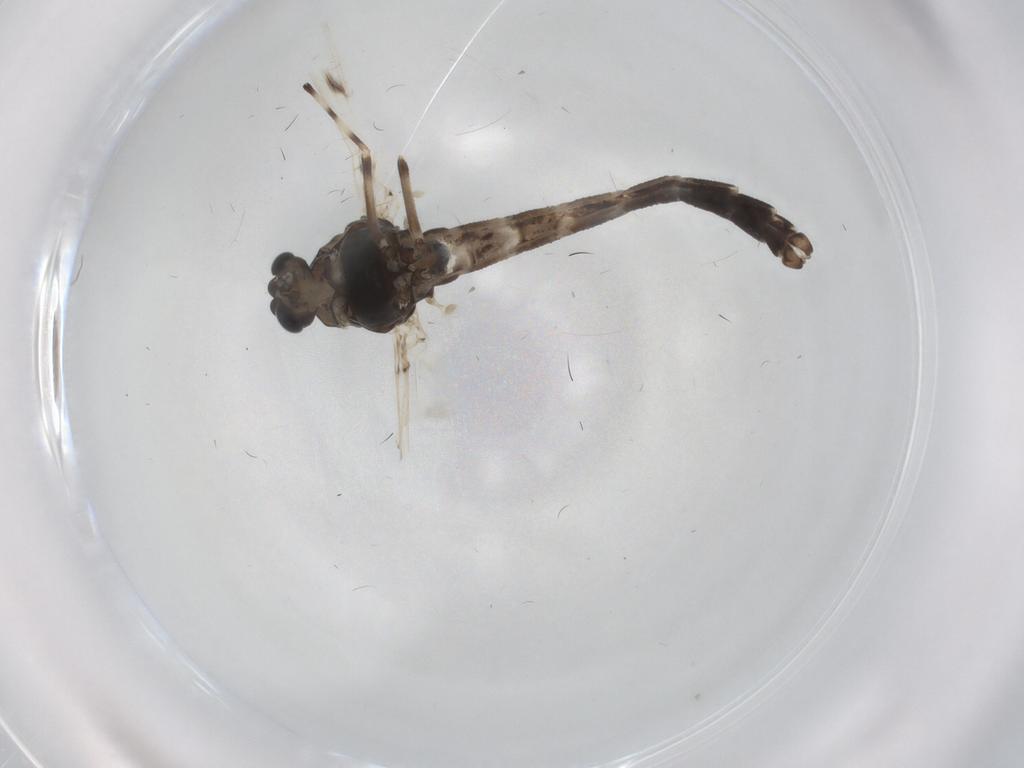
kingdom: Animalia
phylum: Arthropoda
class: Insecta
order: Diptera
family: Chironomidae
